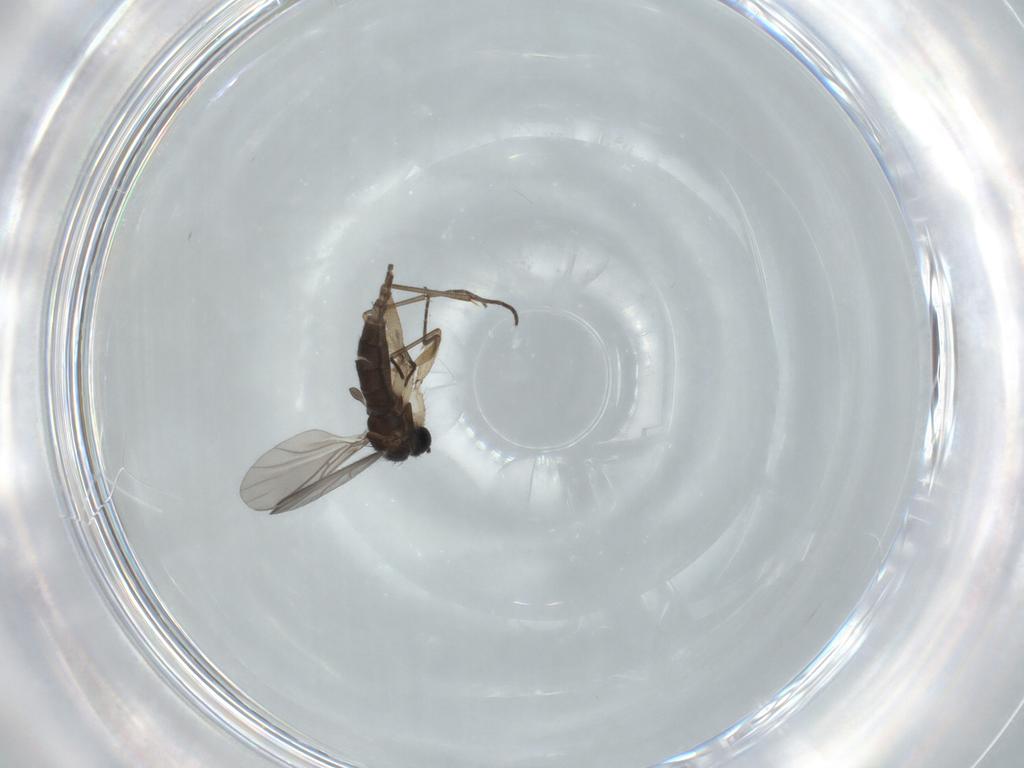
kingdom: Animalia
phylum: Arthropoda
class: Insecta
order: Diptera
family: Sciaridae
